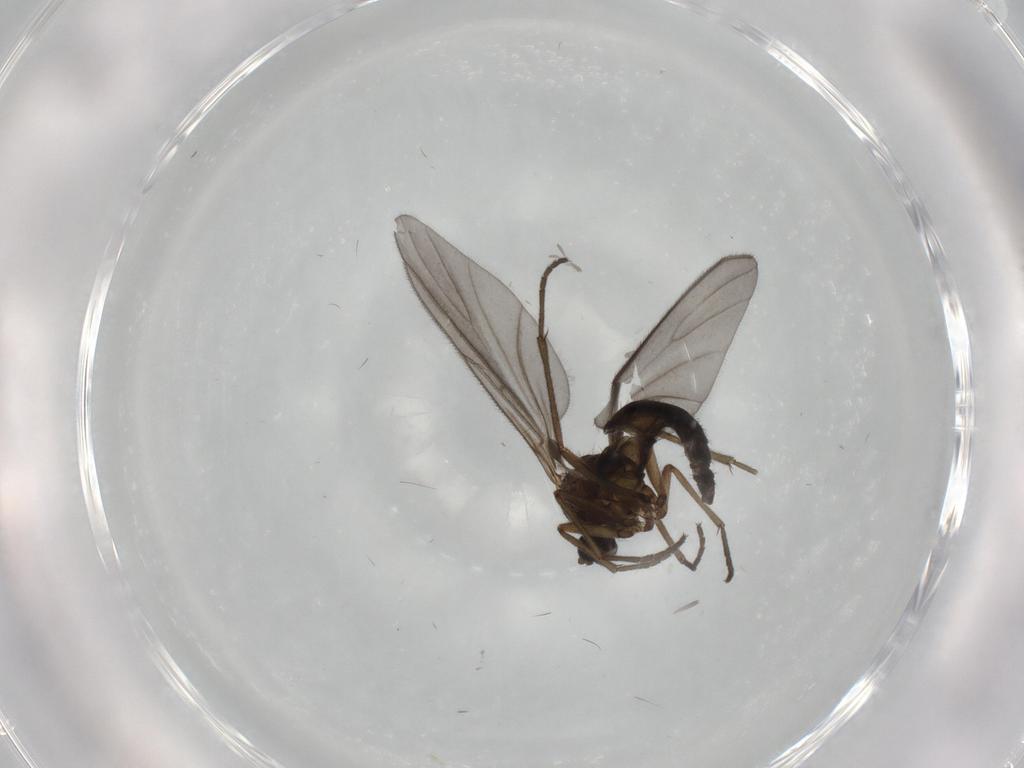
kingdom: Animalia
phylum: Arthropoda
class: Insecta
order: Diptera
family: Sciaridae
